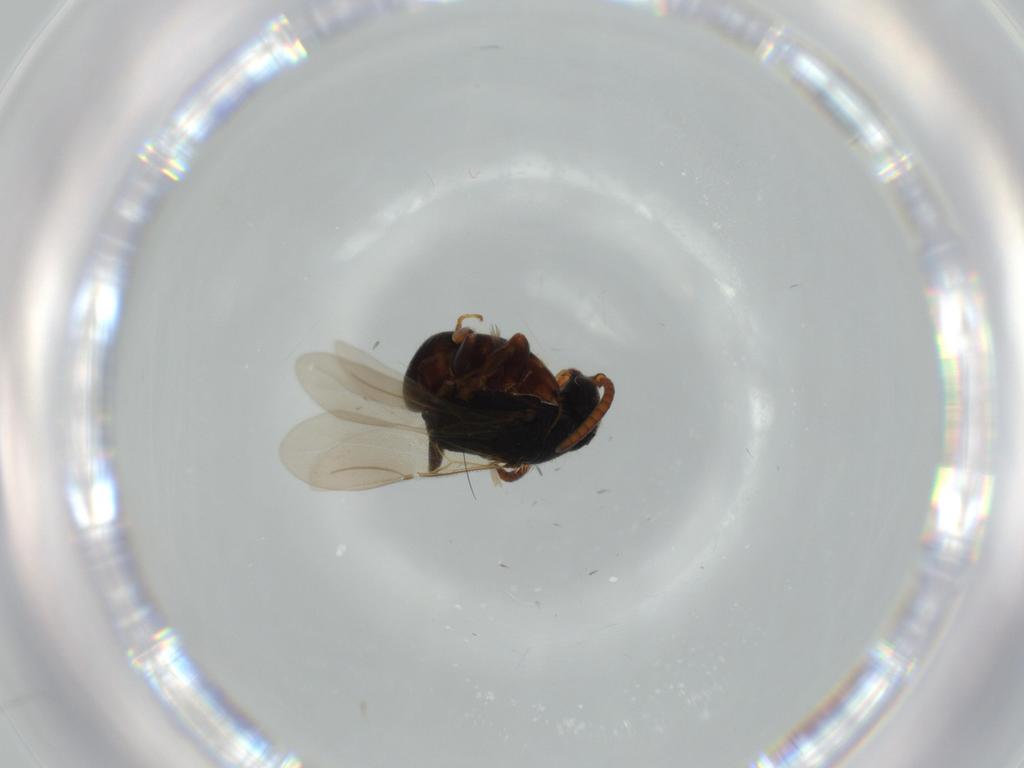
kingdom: Animalia
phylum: Arthropoda
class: Insecta
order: Hymenoptera
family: Bethylidae
